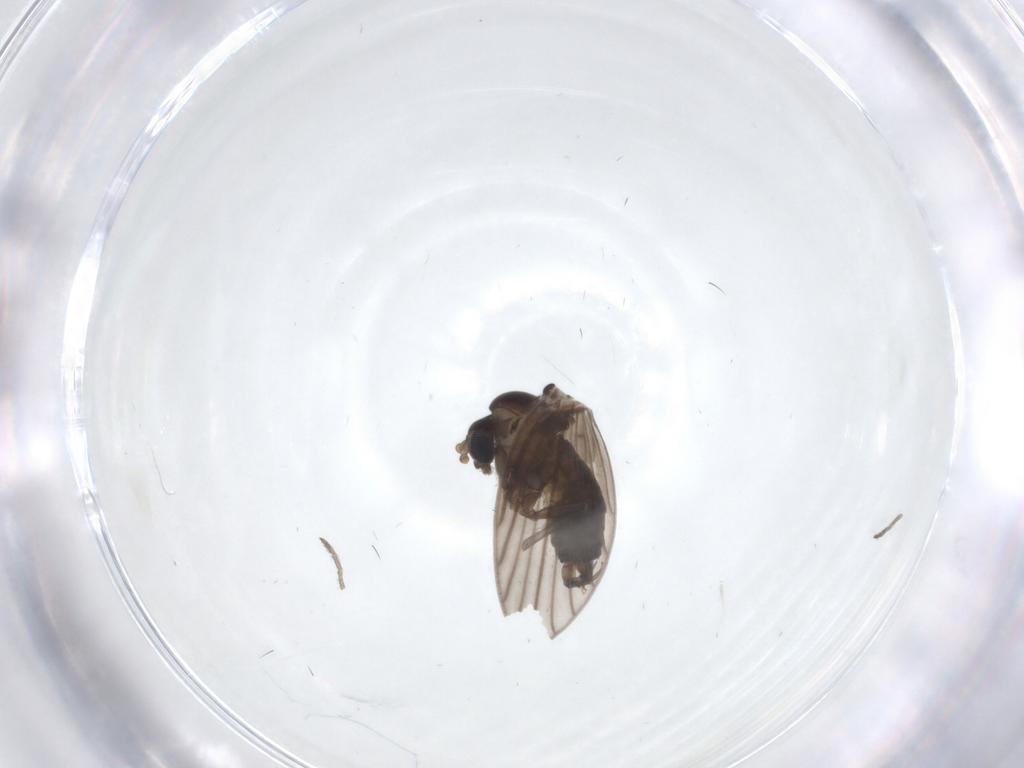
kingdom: Animalia
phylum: Arthropoda
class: Insecta
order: Diptera
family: Psychodidae
